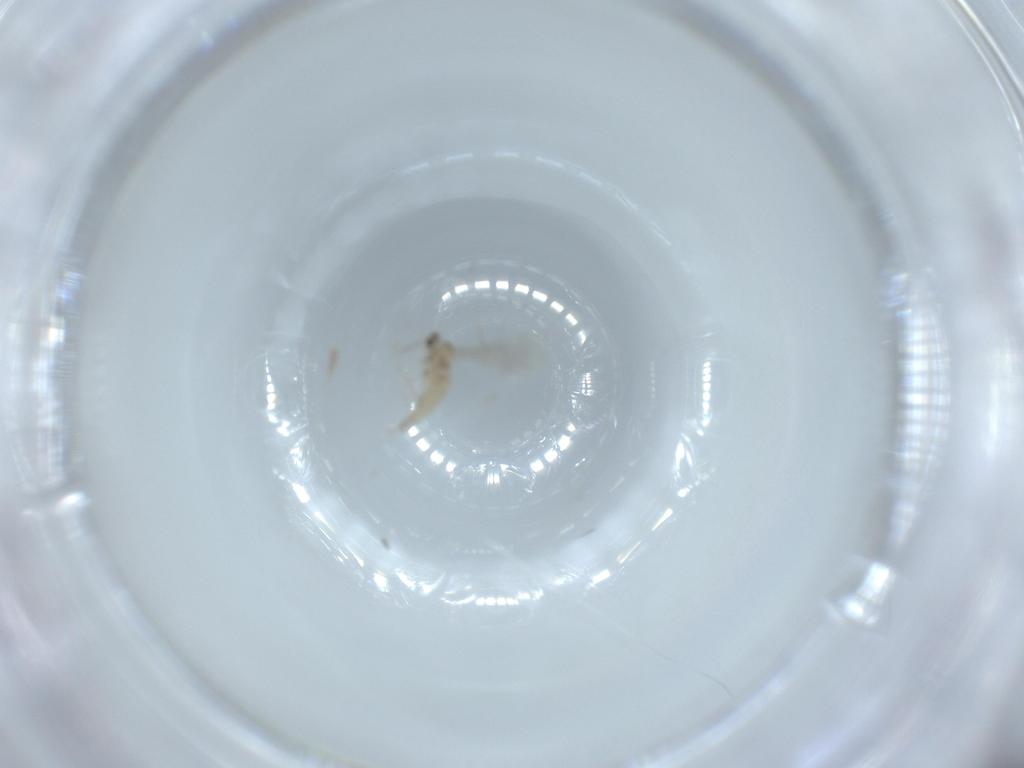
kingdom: Animalia
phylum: Arthropoda
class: Insecta
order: Diptera
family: Cecidomyiidae
